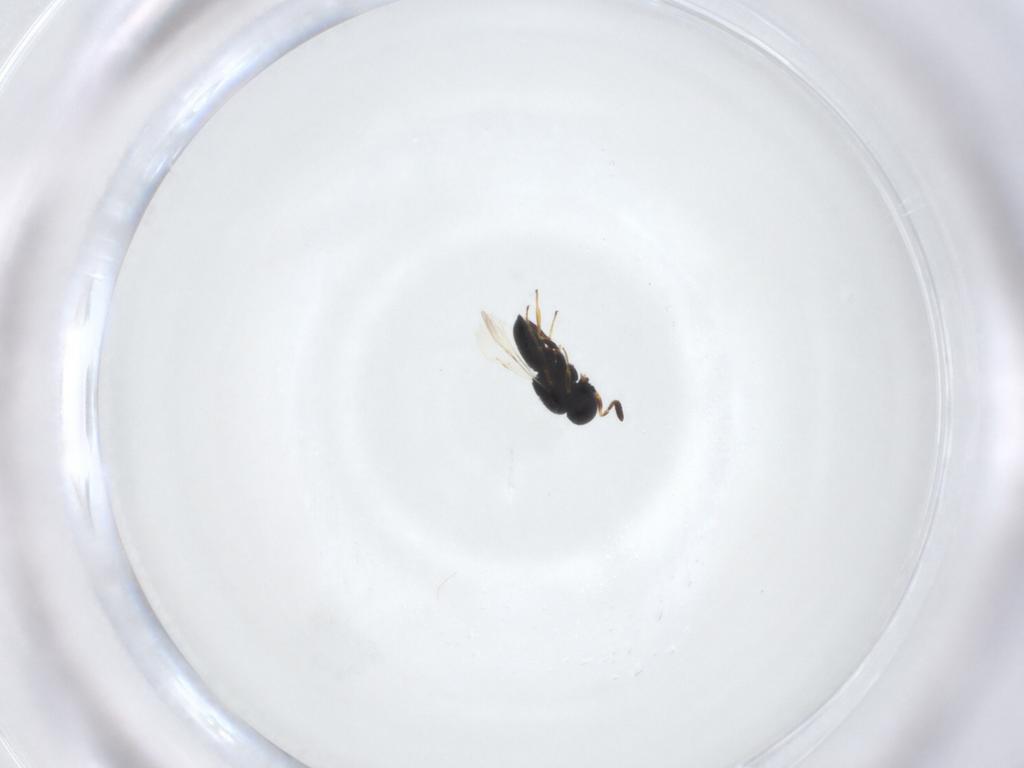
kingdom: Animalia
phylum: Arthropoda
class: Insecta
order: Hymenoptera
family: Scelionidae
